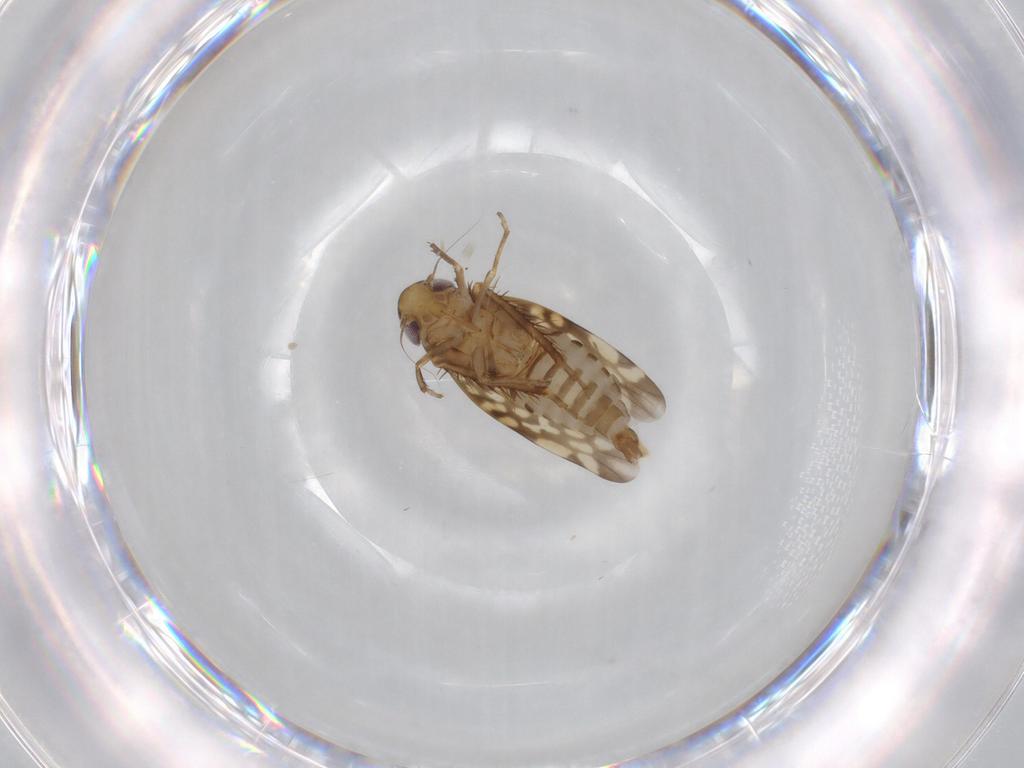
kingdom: Animalia
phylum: Arthropoda
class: Insecta
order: Hemiptera
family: Cicadellidae
